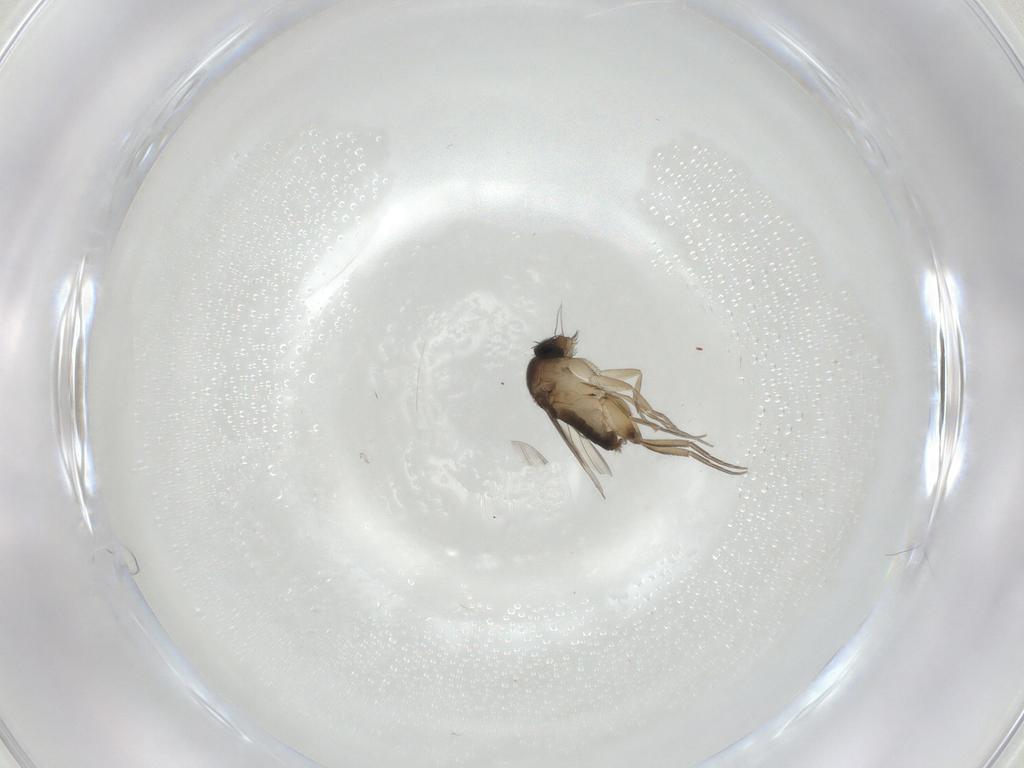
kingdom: Animalia
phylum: Arthropoda
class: Insecta
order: Diptera
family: Phoridae
